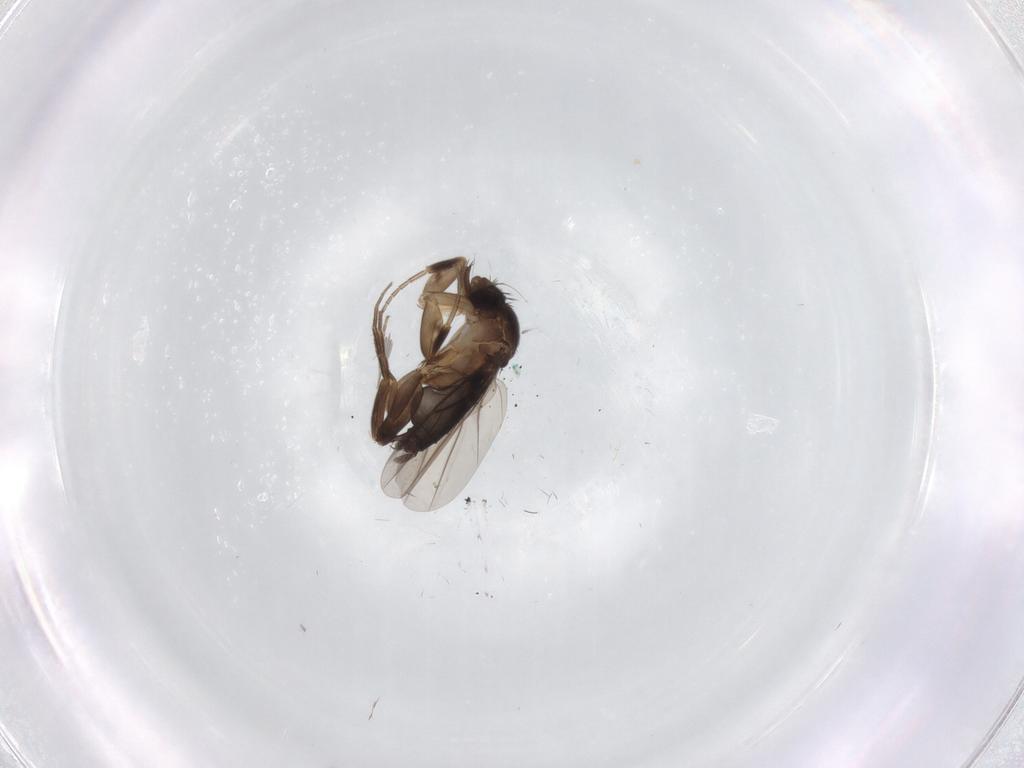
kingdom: Animalia
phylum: Arthropoda
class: Insecta
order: Diptera
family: Phoridae
